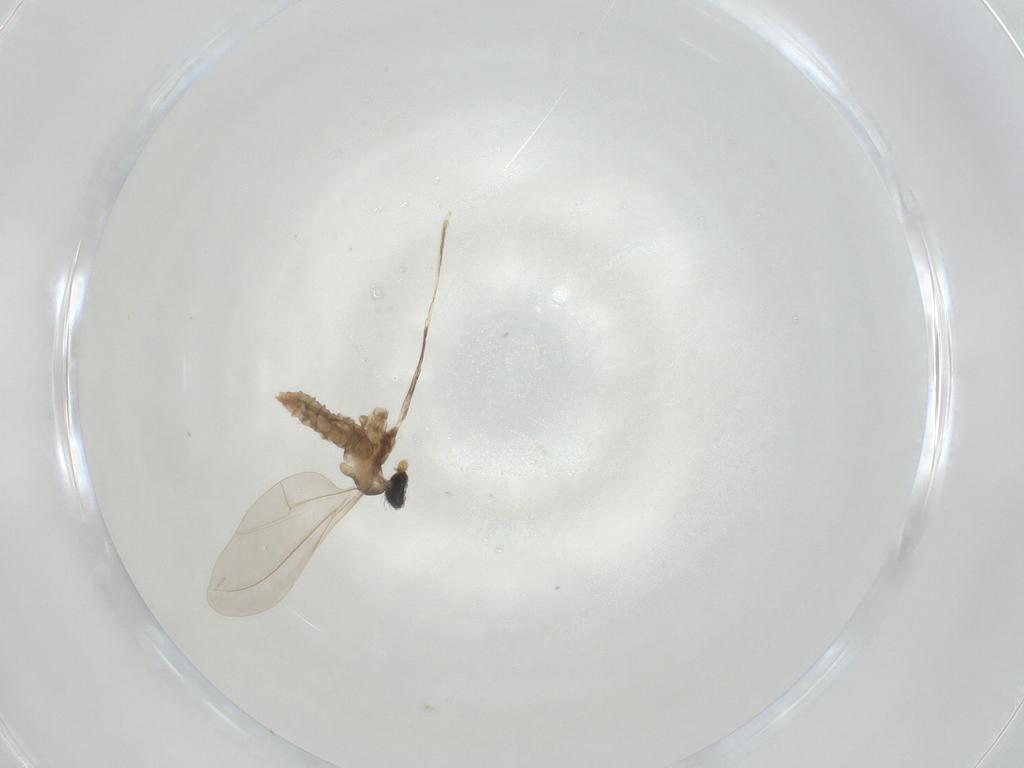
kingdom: Animalia
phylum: Arthropoda
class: Insecta
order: Diptera
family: Cecidomyiidae
